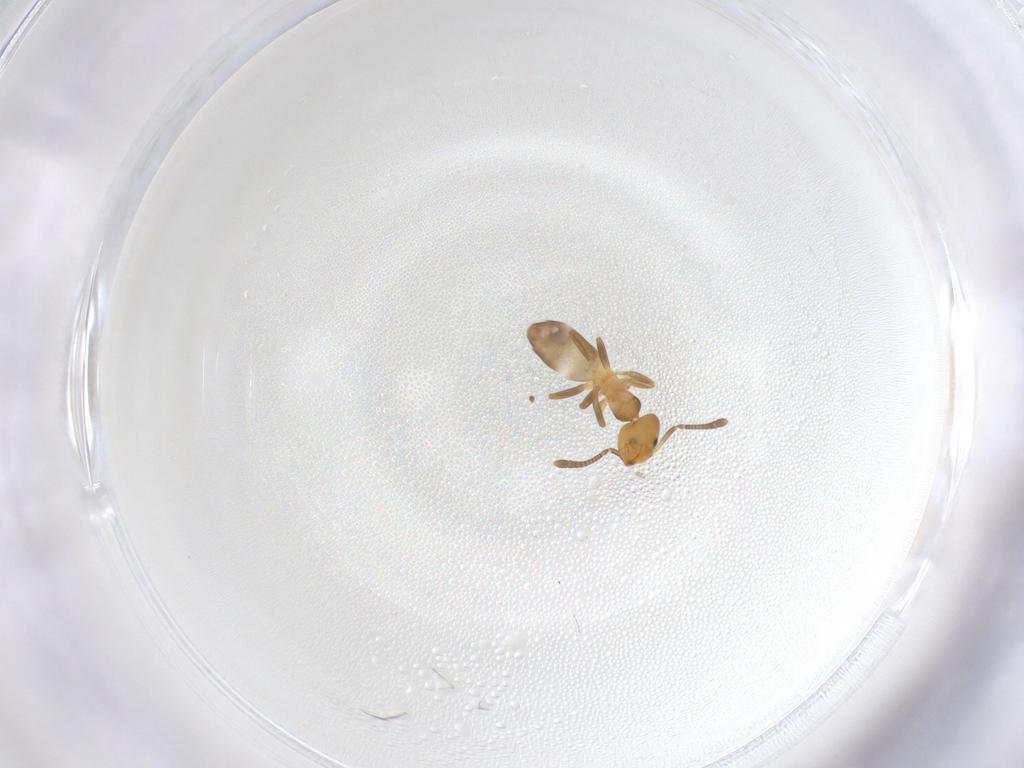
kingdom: Animalia
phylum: Arthropoda
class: Insecta
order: Hymenoptera
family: Formicidae
